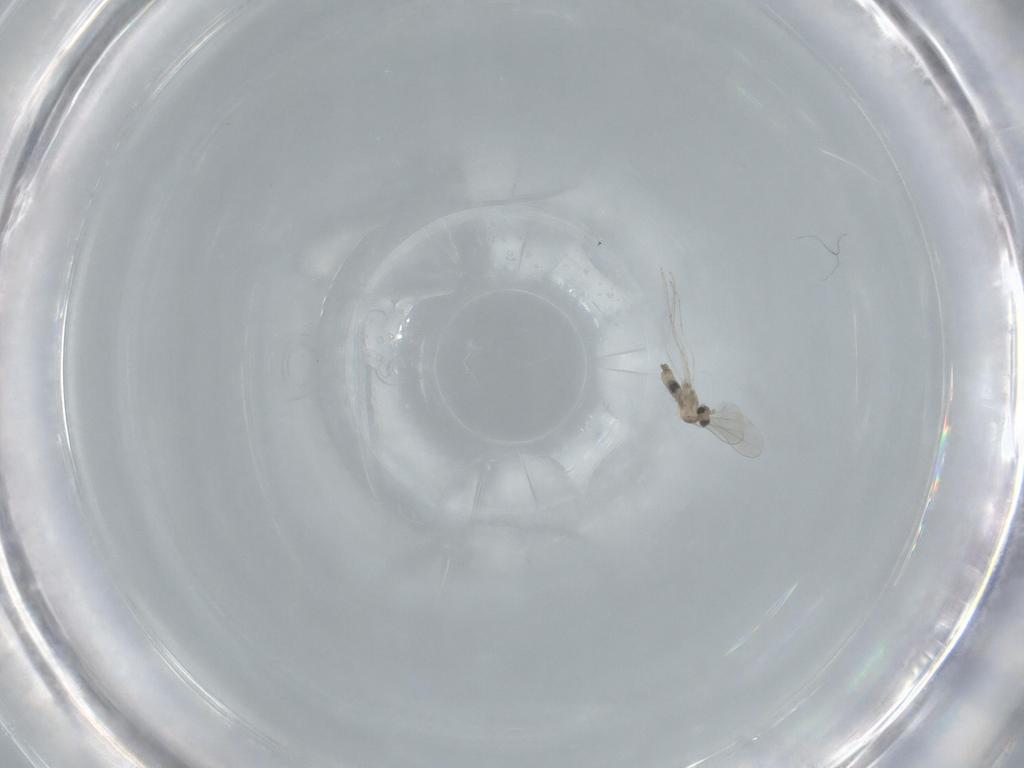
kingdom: Animalia
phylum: Arthropoda
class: Insecta
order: Diptera
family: Cecidomyiidae
